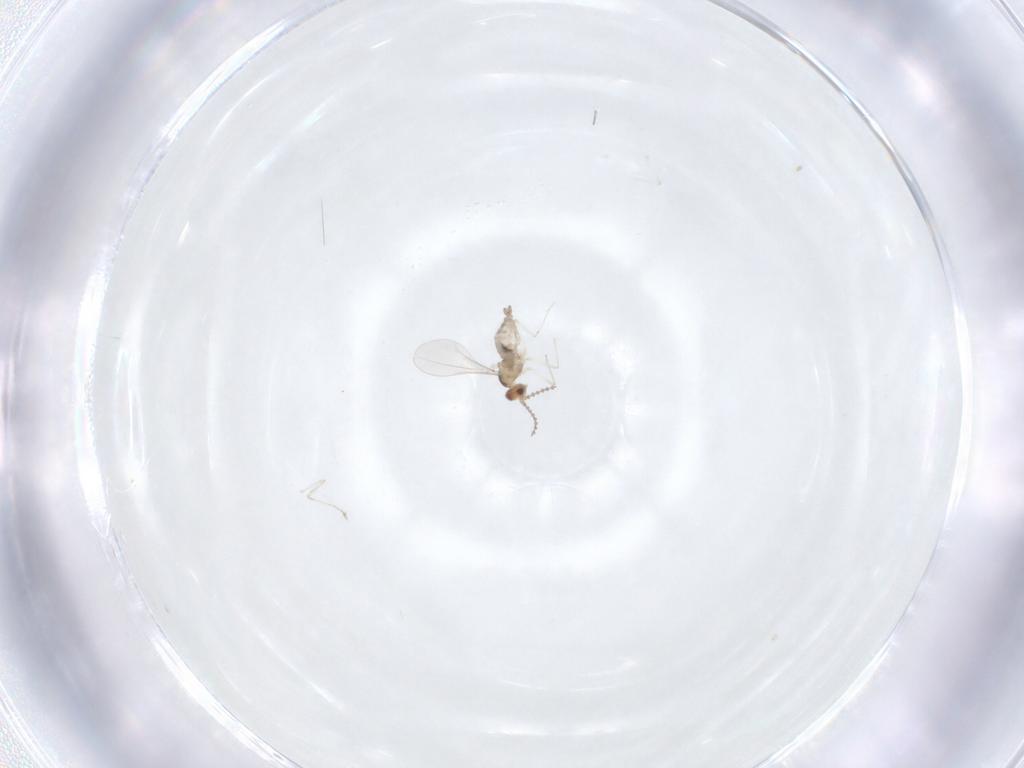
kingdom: Animalia
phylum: Arthropoda
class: Insecta
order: Diptera
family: Cecidomyiidae
